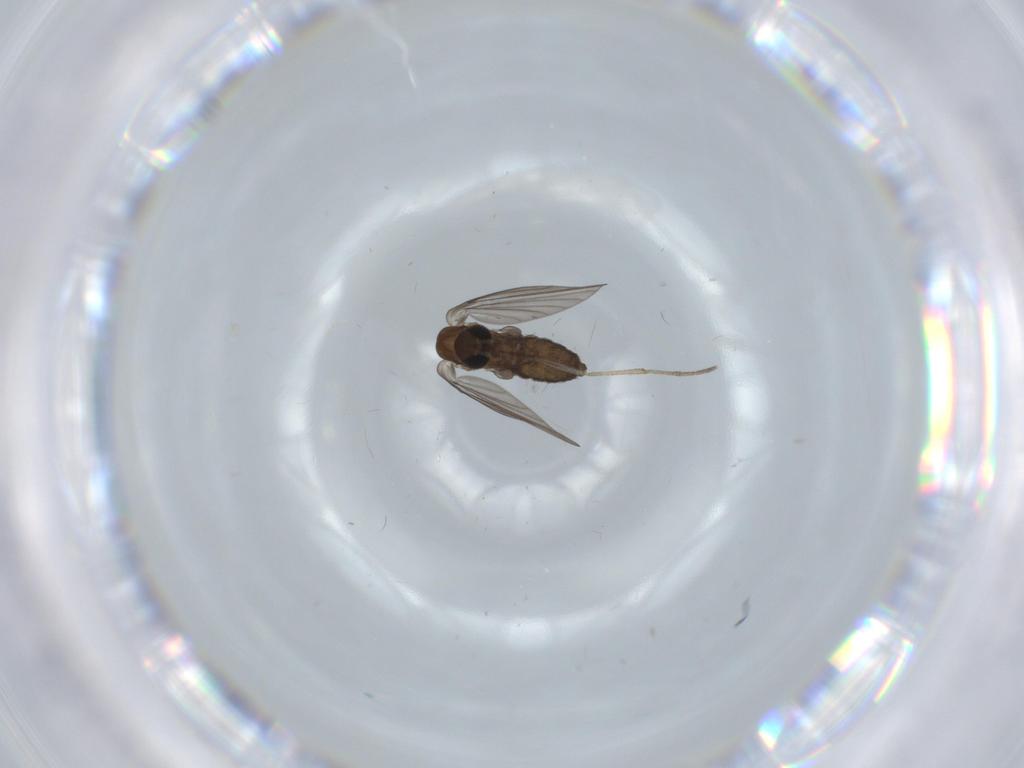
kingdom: Animalia
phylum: Arthropoda
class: Insecta
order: Diptera
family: Psychodidae
